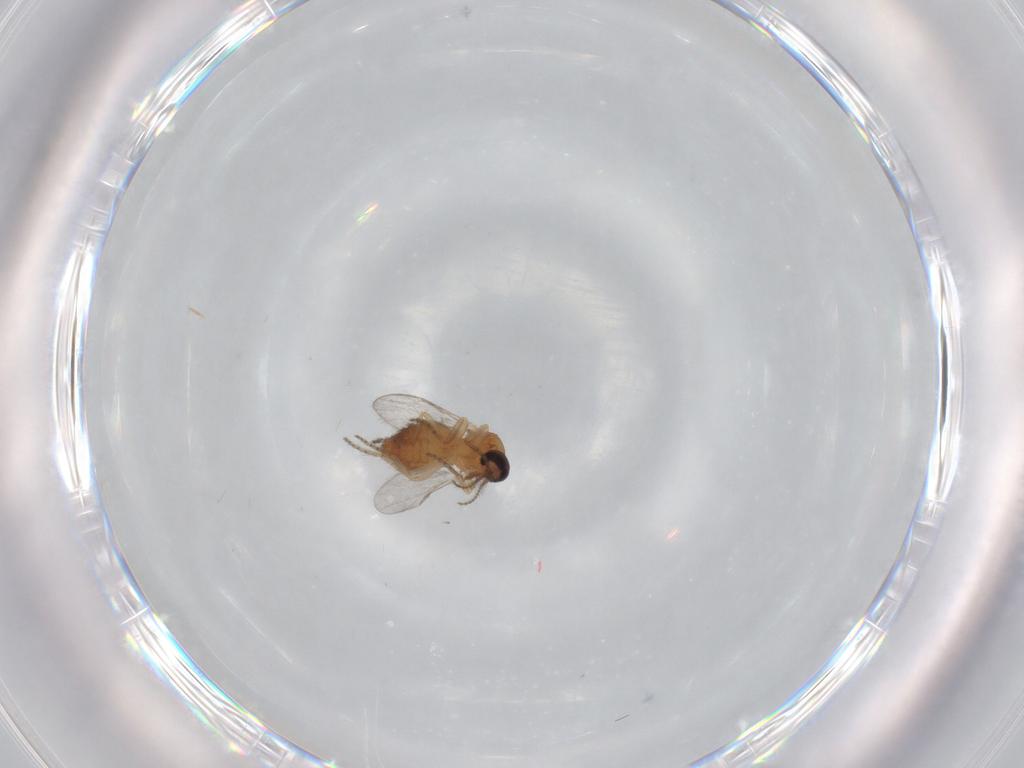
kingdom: Animalia
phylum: Arthropoda
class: Insecta
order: Diptera
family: Ceratopogonidae
